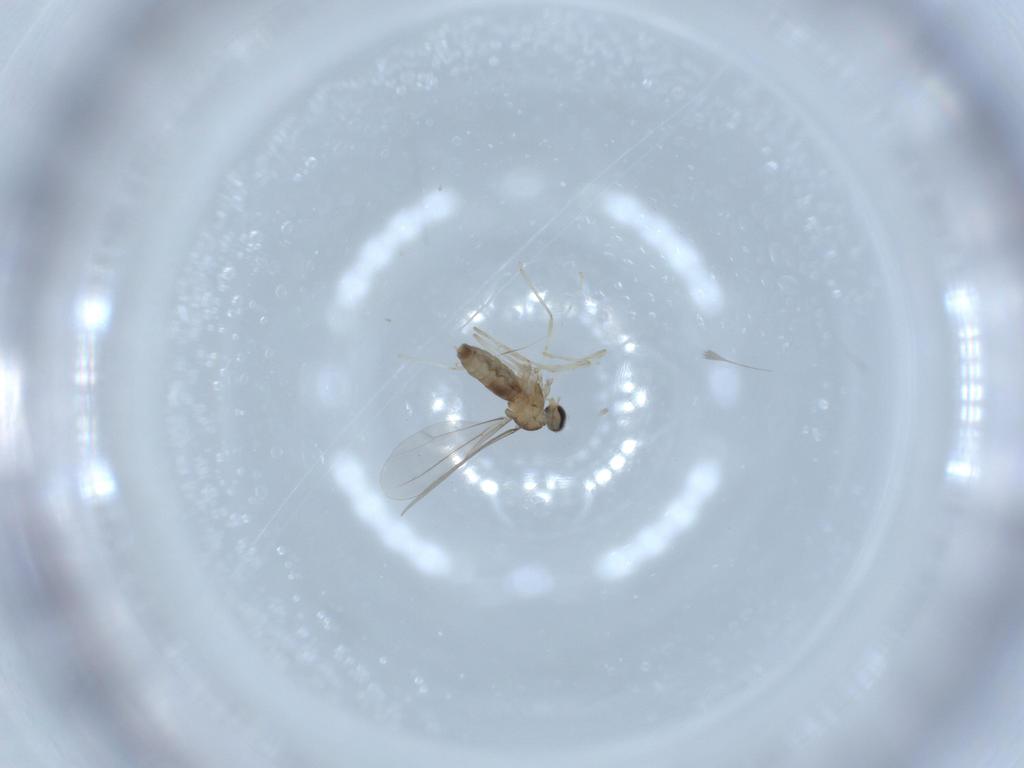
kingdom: Animalia
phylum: Arthropoda
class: Insecta
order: Diptera
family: Cecidomyiidae
